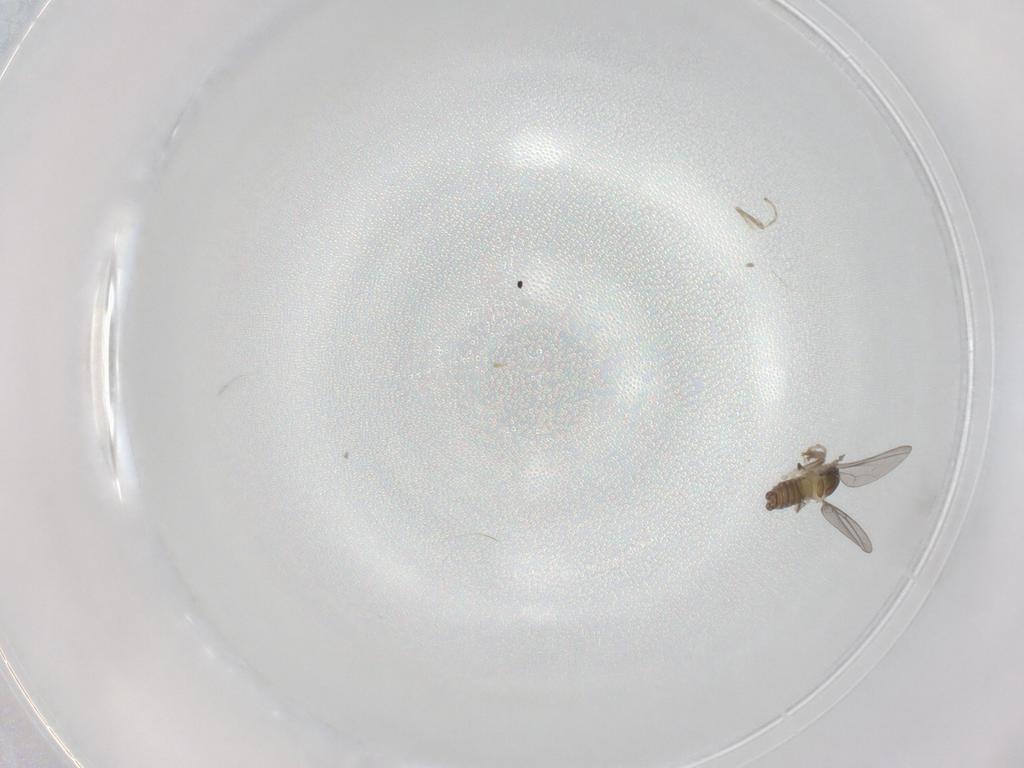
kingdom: Animalia
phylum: Arthropoda
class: Insecta
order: Diptera
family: Cecidomyiidae
